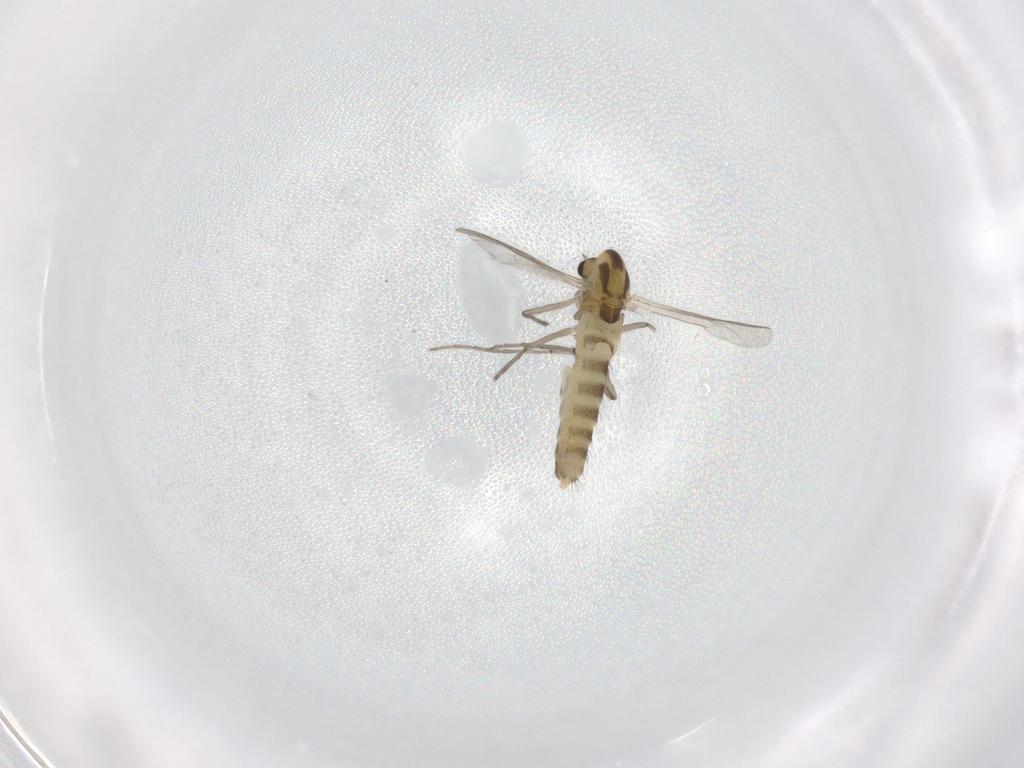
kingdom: Animalia
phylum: Arthropoda
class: Insecta
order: Diptera
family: Chironomidae
